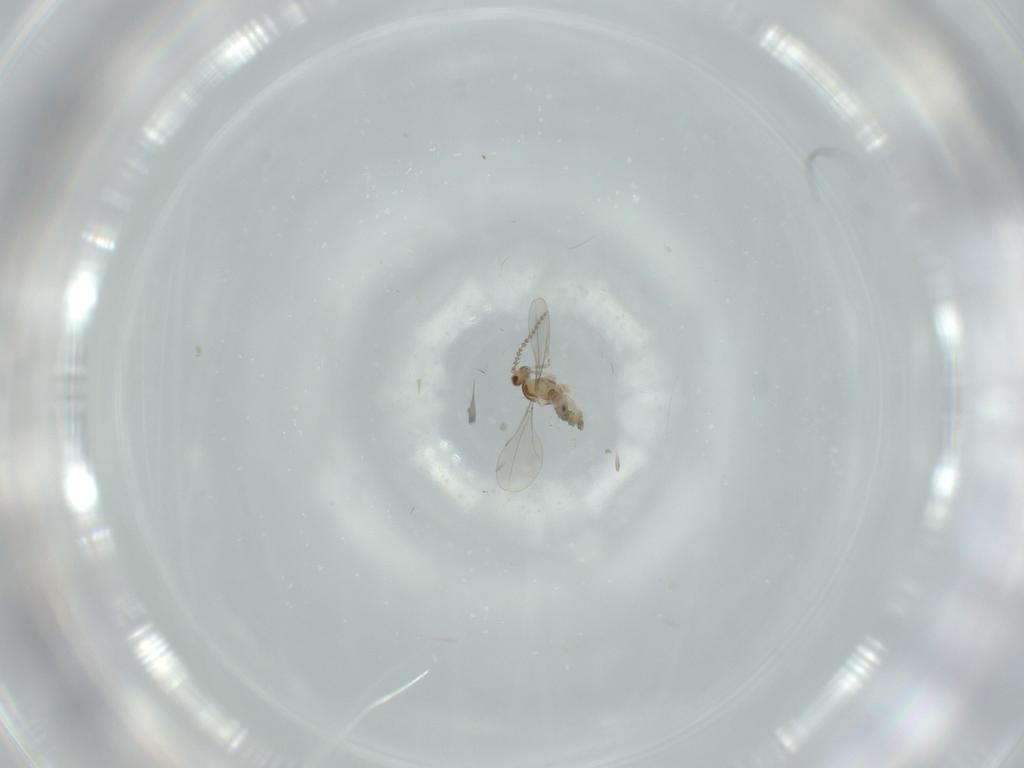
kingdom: Animalia
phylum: Arthropoda
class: Insecta
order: Diptera
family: Cecidomyiidae
